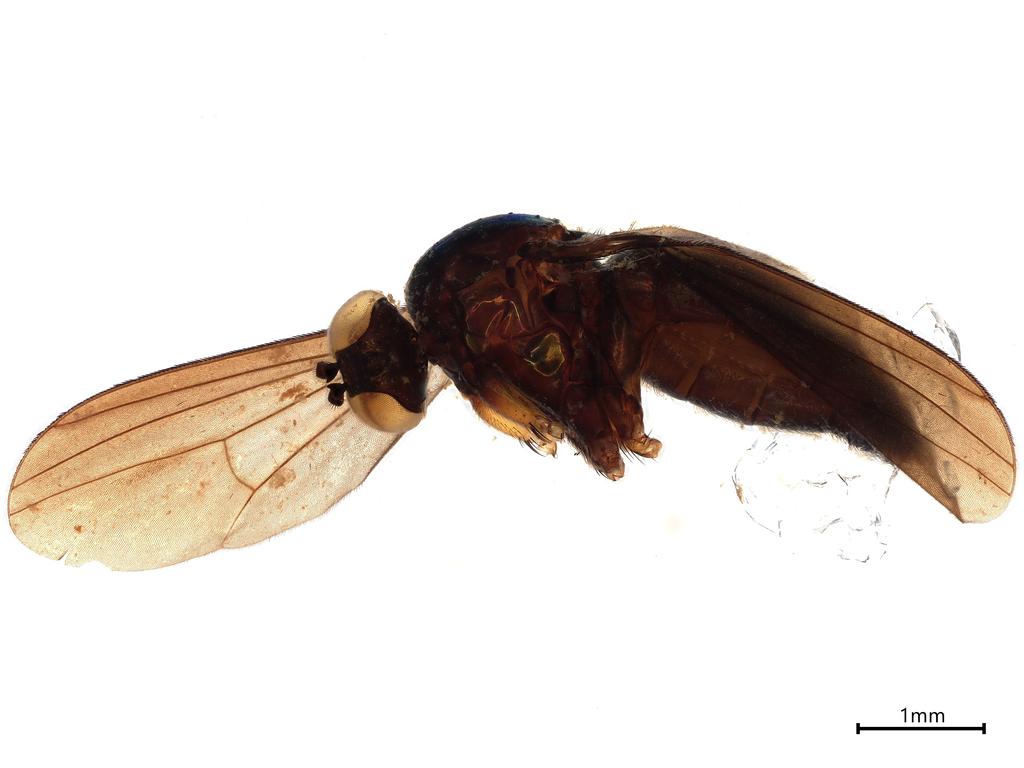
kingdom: Animalia
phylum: Arthropoda
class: Insecta
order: Diptera
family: Dolichopodidae
